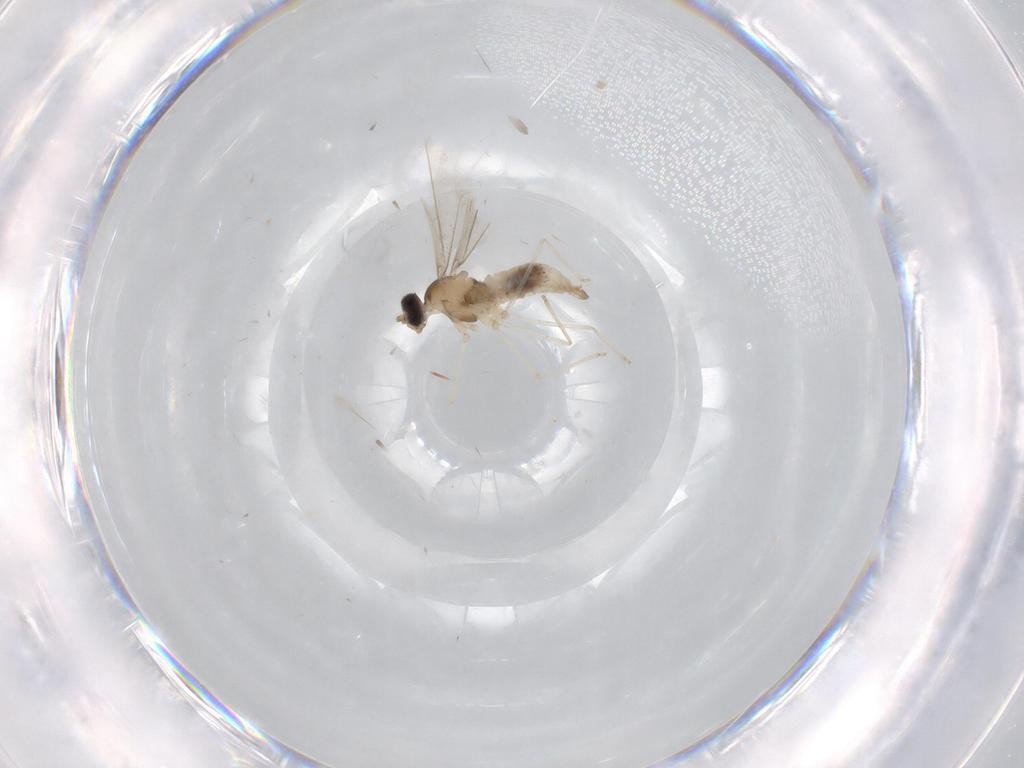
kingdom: Animalia
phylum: Arthropoda
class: Insecta
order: Diptera
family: Cecidomyiidae
